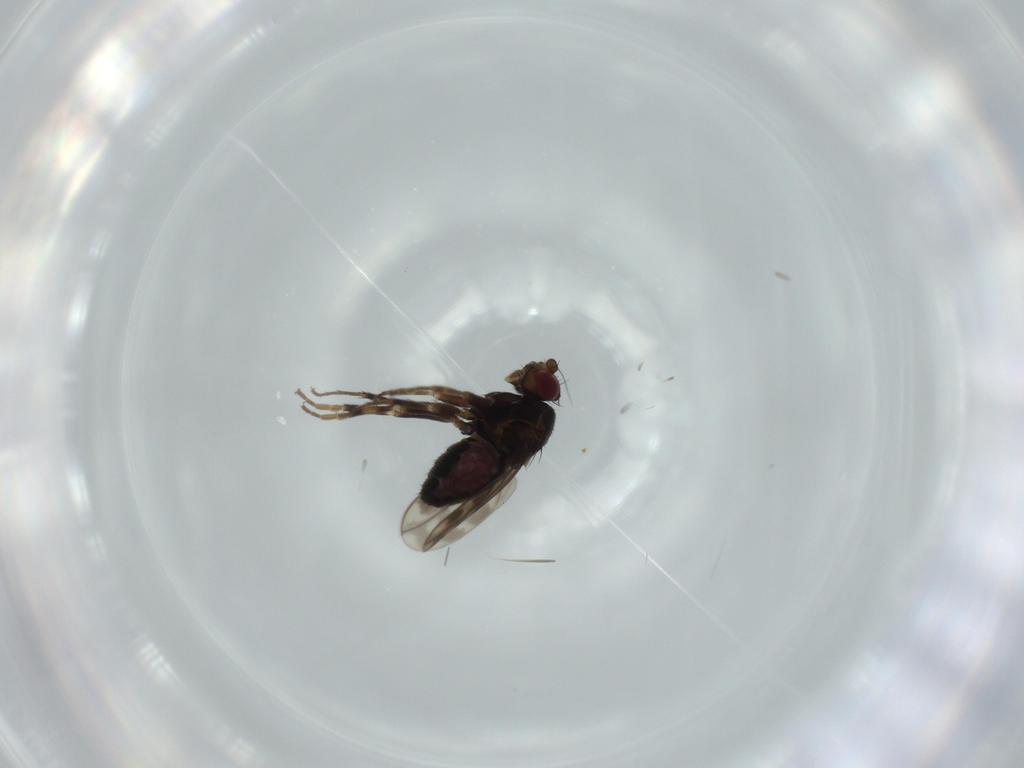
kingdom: Animalia
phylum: Arthropoda
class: Insecta
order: Diptera
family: Sphaeroceridae
